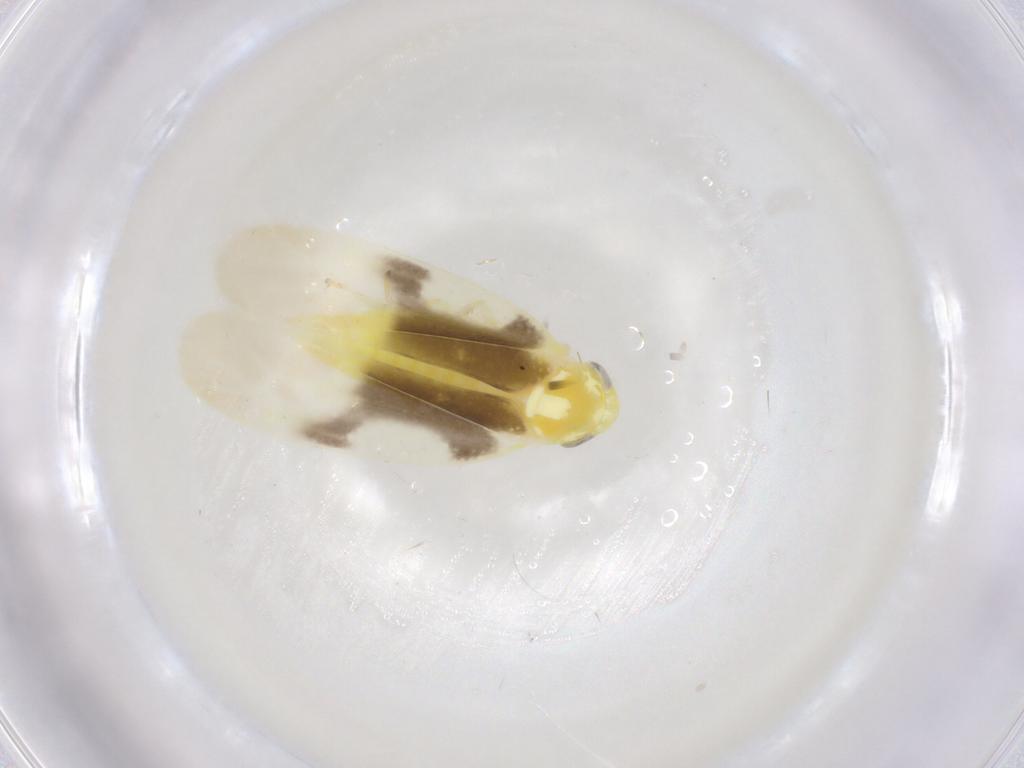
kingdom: Animalia
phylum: Arthropoda
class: Insecta
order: Hemiptera
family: Cicadellidae
